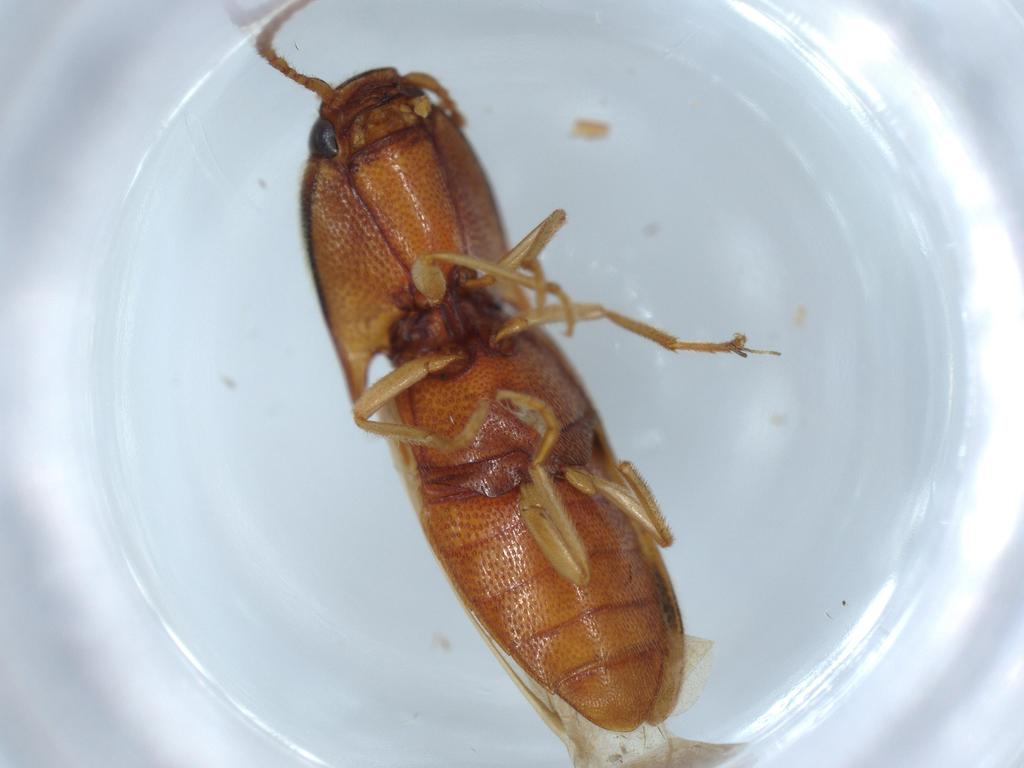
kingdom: Animalia
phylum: Arthropoda
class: Insecta
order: Coleoptera
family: Elateridae
